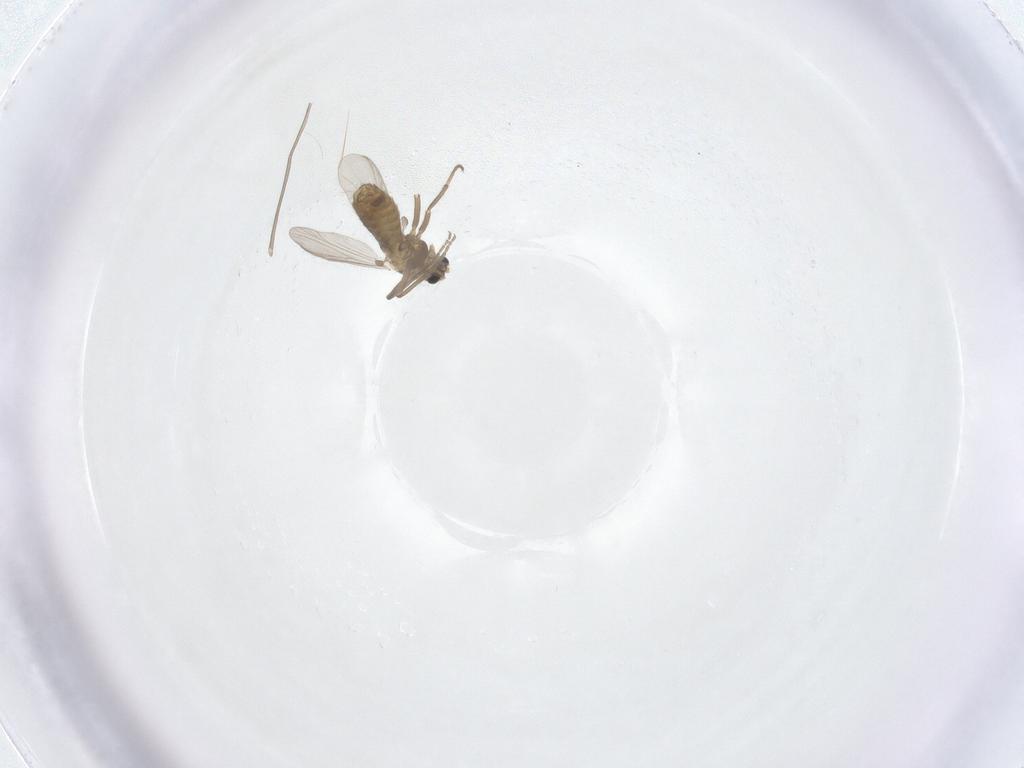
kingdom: Animalia
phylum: Arthropoda
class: Insecta
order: Diptera
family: Chironomidae
